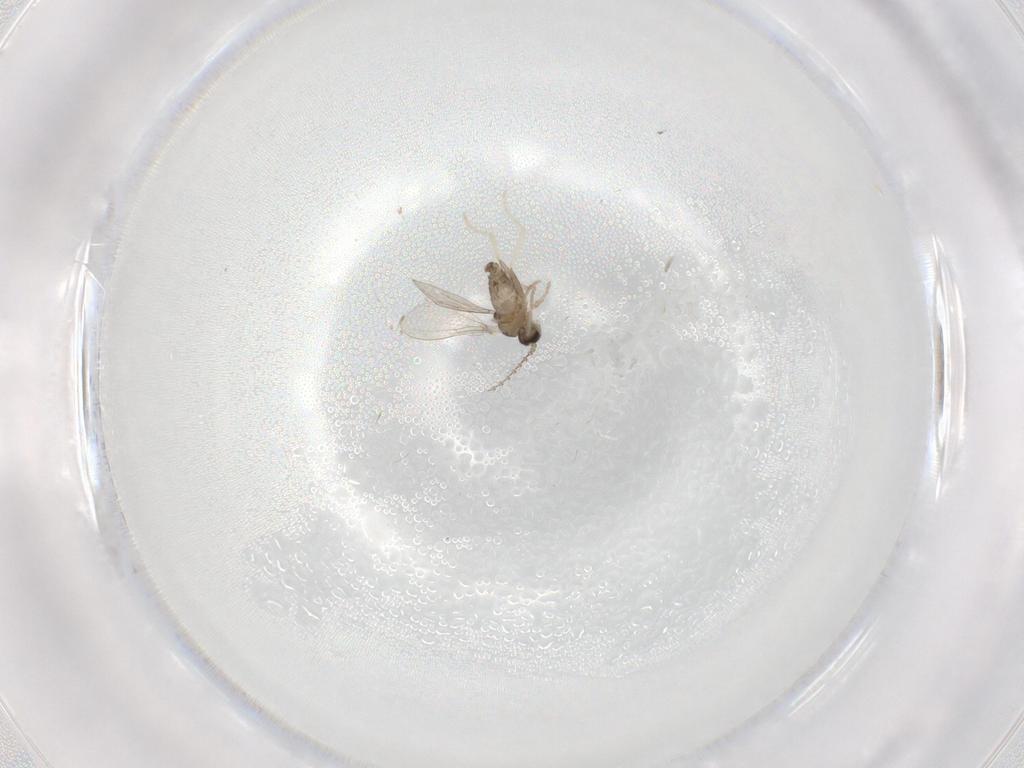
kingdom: Animalia
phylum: Arthropoda
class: Insecta
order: Diptera
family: Cecidomyiidae
